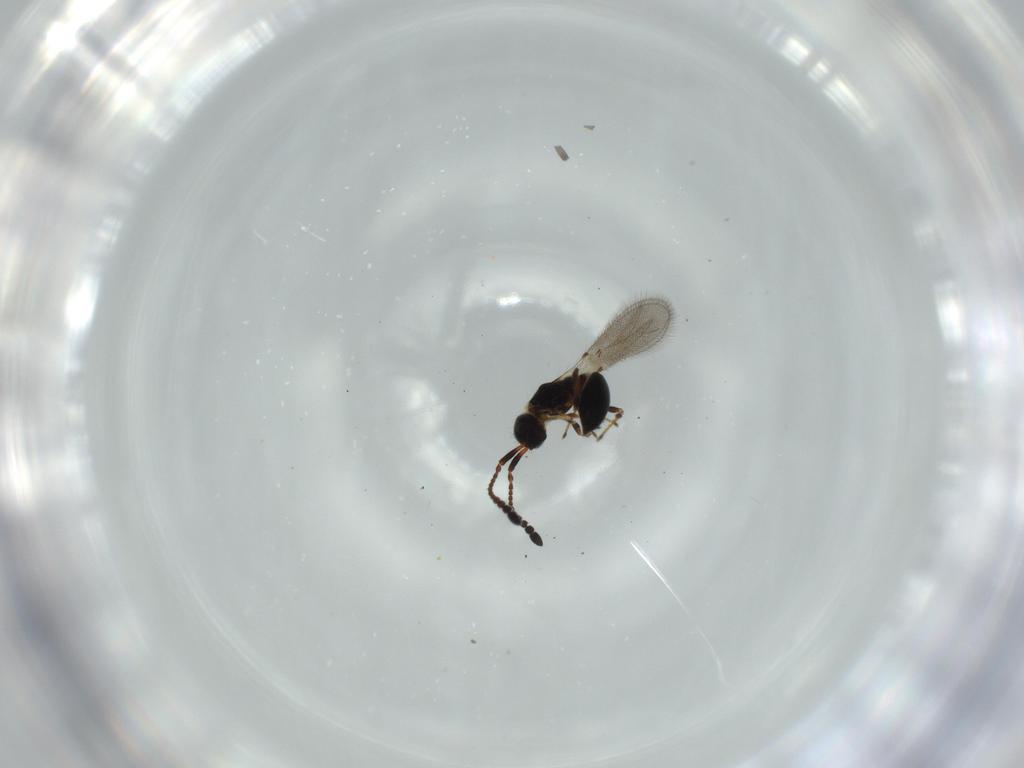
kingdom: Animalia
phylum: Arthropoda
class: Insecta
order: Hymenoptera
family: Diapriidae
